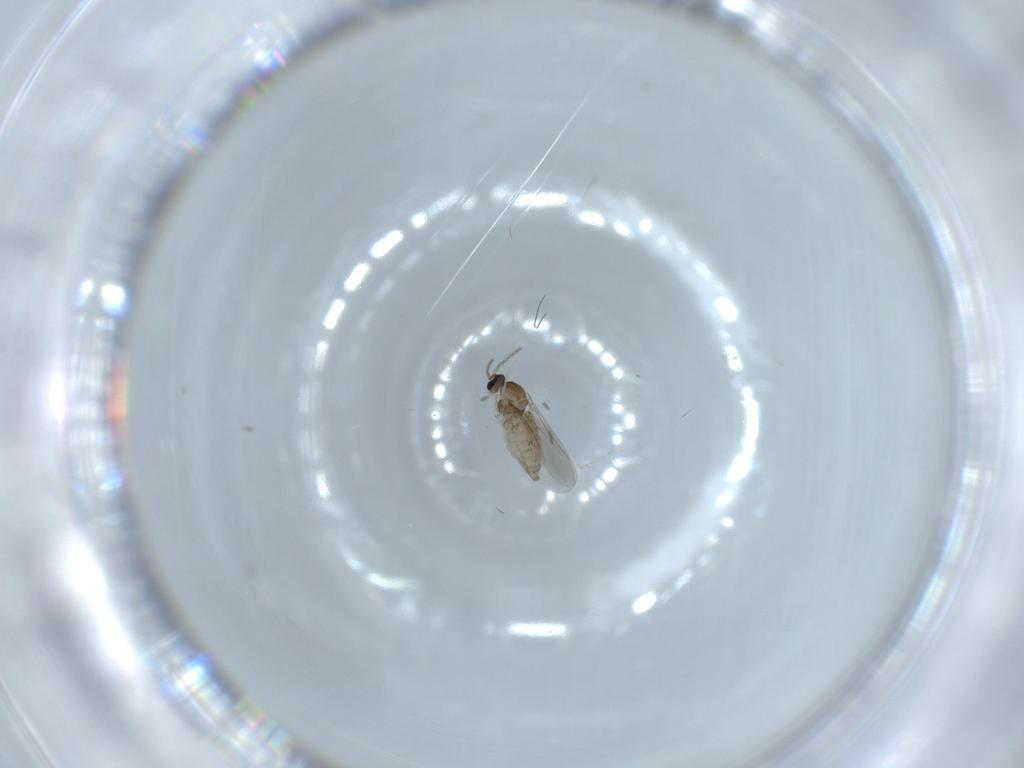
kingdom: Animalia
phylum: Arthropoda
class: Insecta
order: Diptera
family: Cecidomyiidae
